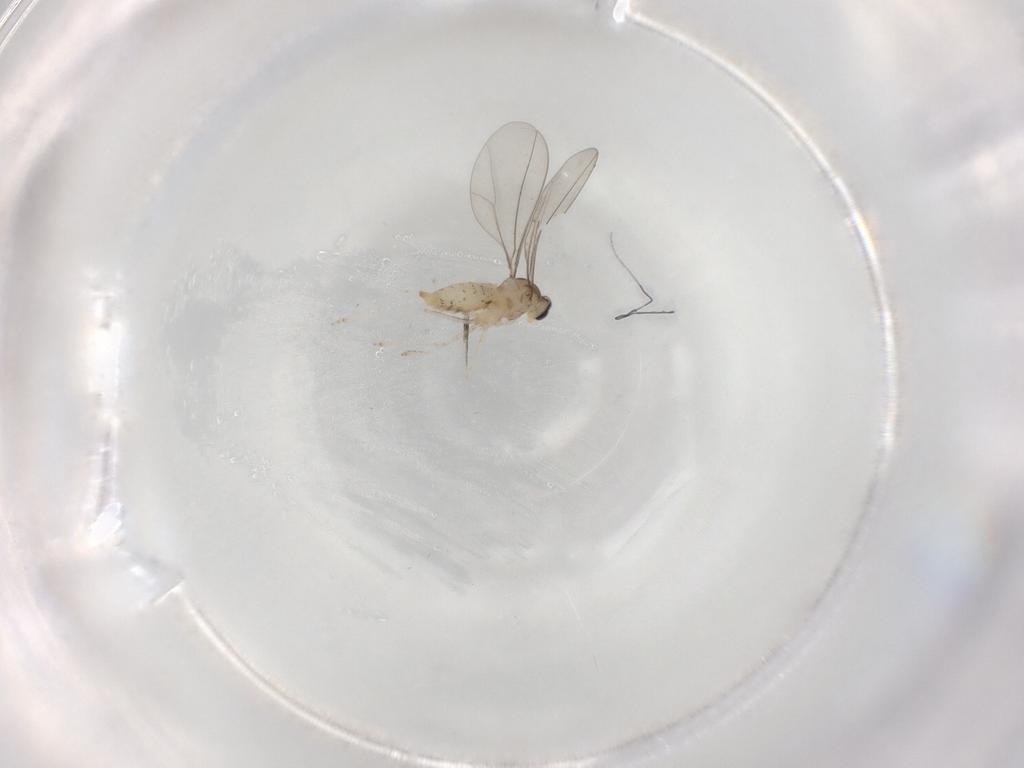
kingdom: Animalia
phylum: Arthropoda
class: Insecta
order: Diptera
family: Cecidomyiidae
